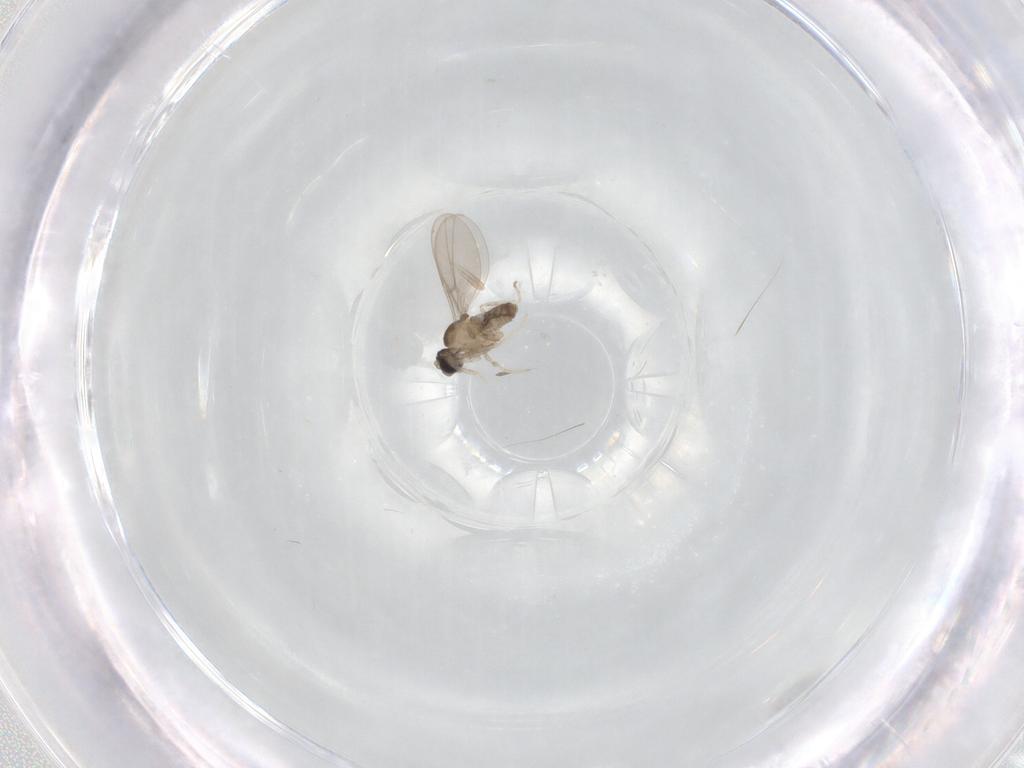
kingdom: Animalia
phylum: Arthropoda
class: Insecta
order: Diptera
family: Cecidomyiidae
